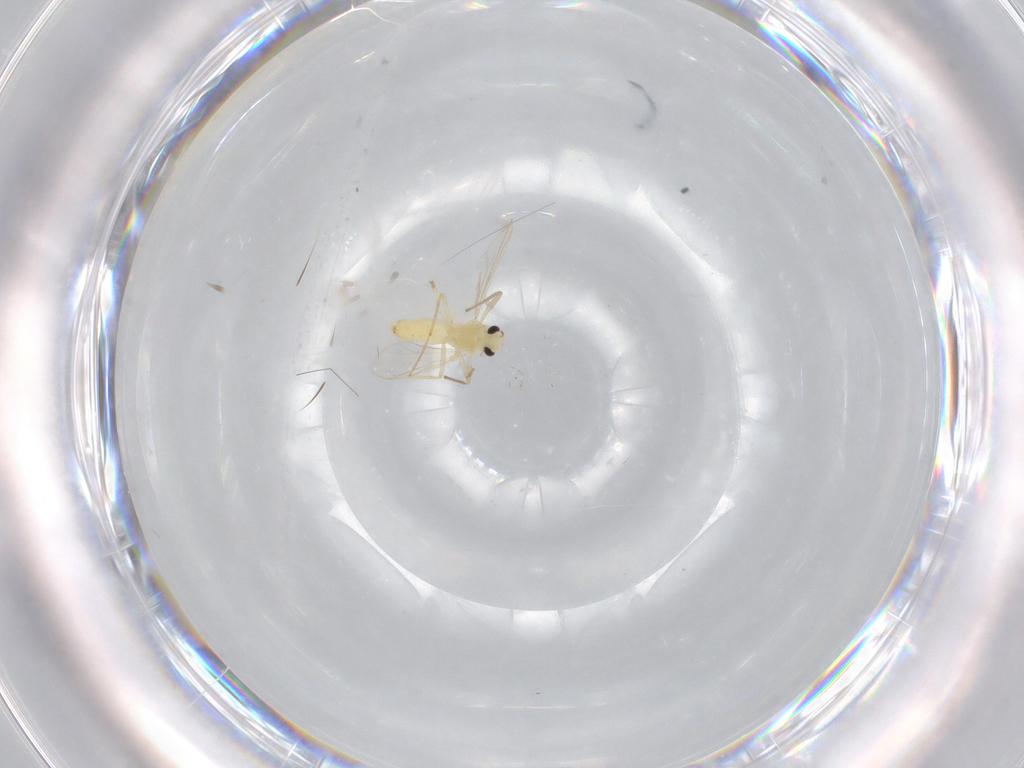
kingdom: Animalia
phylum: Arthropoda
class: Insecta
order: Diptera
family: Chironomidae
